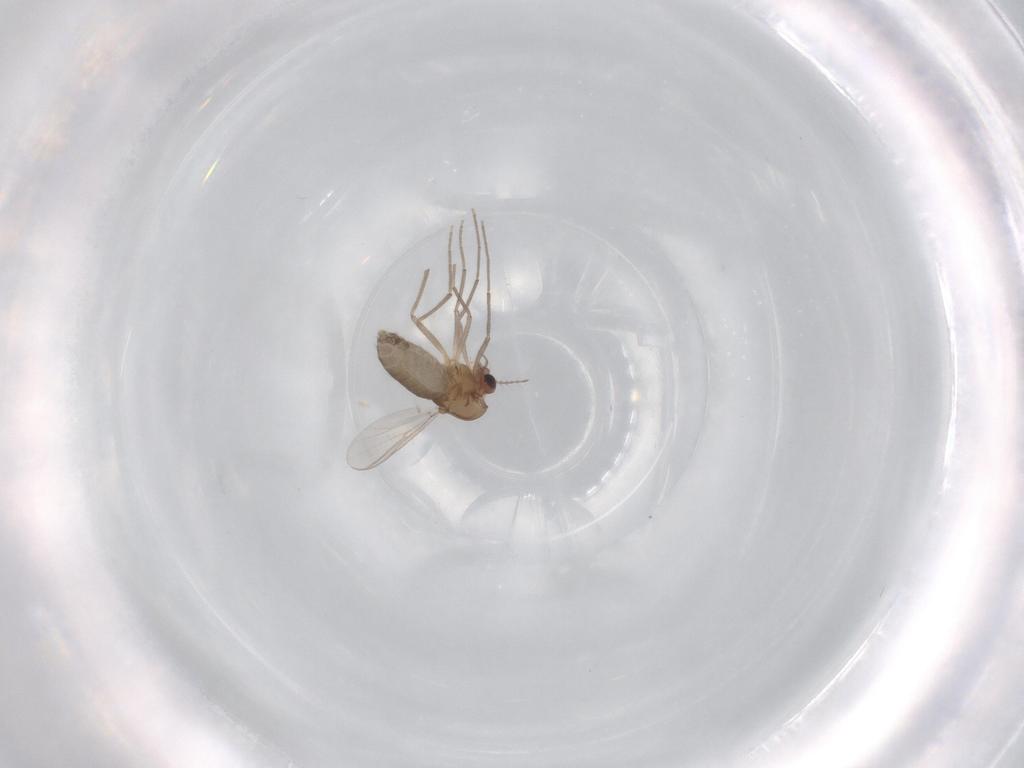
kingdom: Animalia
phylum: Arthropoda
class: Insecta
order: Diptera
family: Chironomidae
